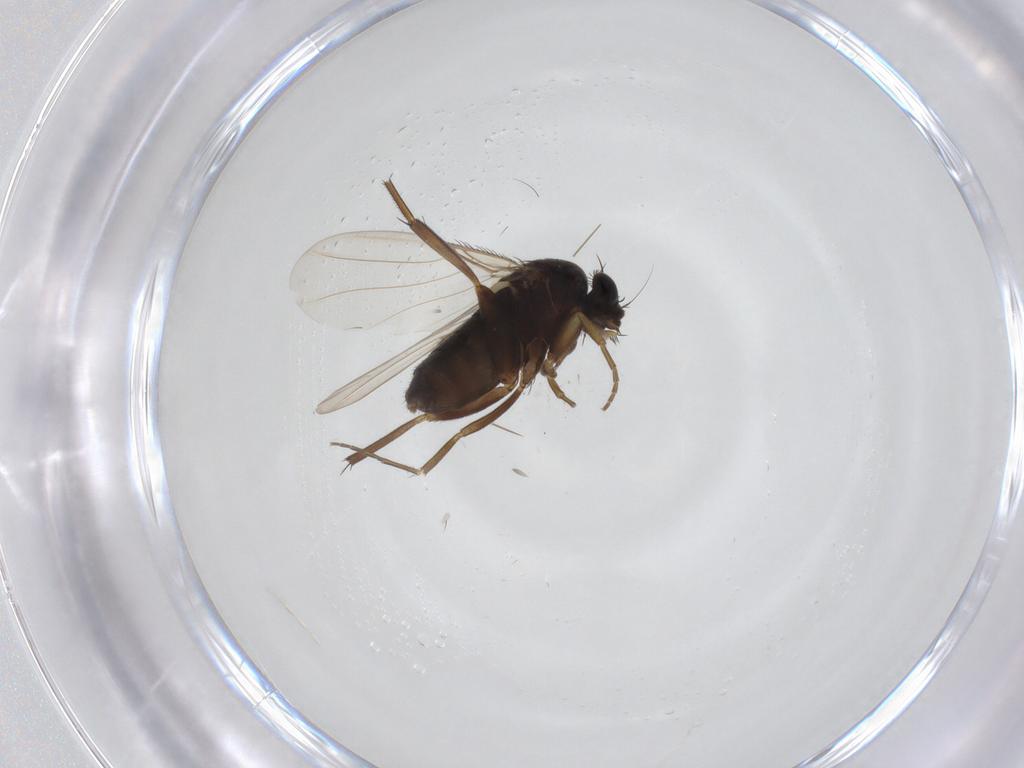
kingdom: Animalia
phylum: Arthropoda
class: Insecta
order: Diptera
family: Phoridae
